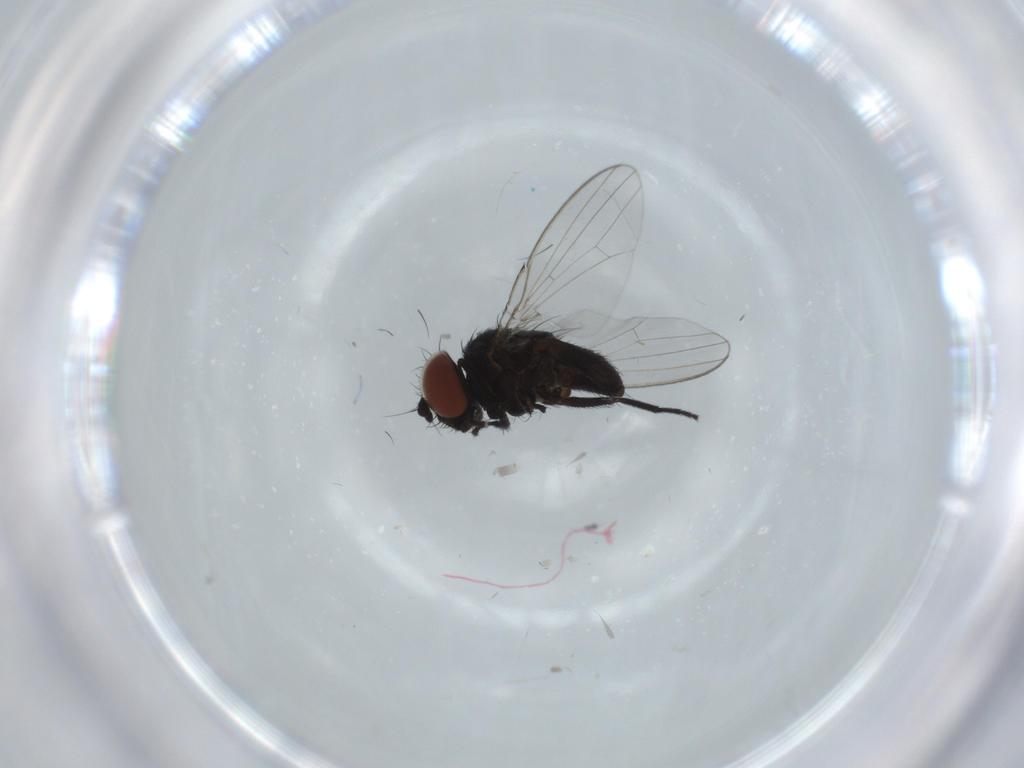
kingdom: Animalia
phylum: Arthropoda
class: Insecta
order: Diptera
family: Milichiidae
